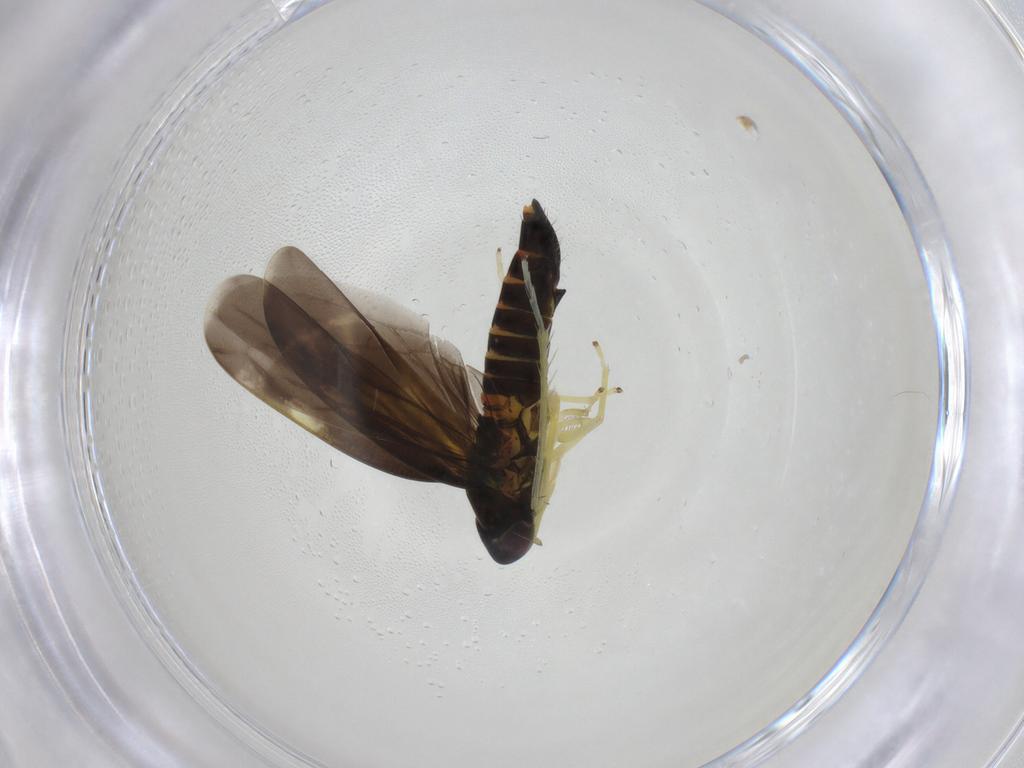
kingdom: Animalia
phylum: Arthropoda
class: Insecta
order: Hemiptera
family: Cicadellidae
